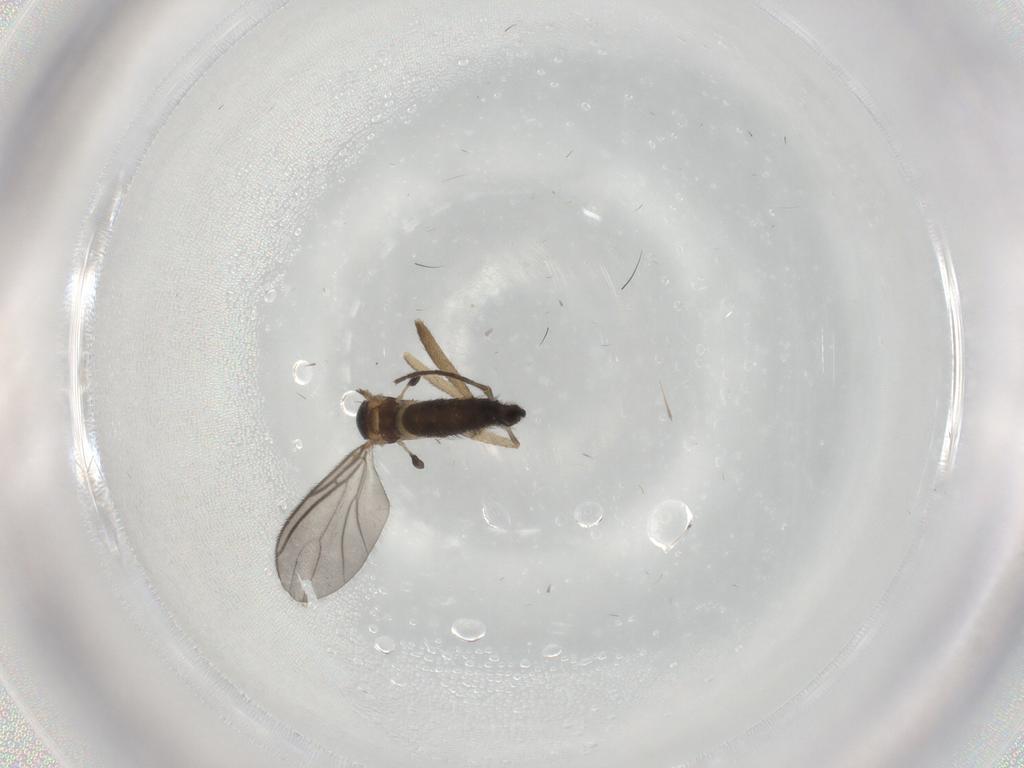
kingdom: Animalia
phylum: Arthropoda
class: Insecta
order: Diptera
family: Sciaridae
